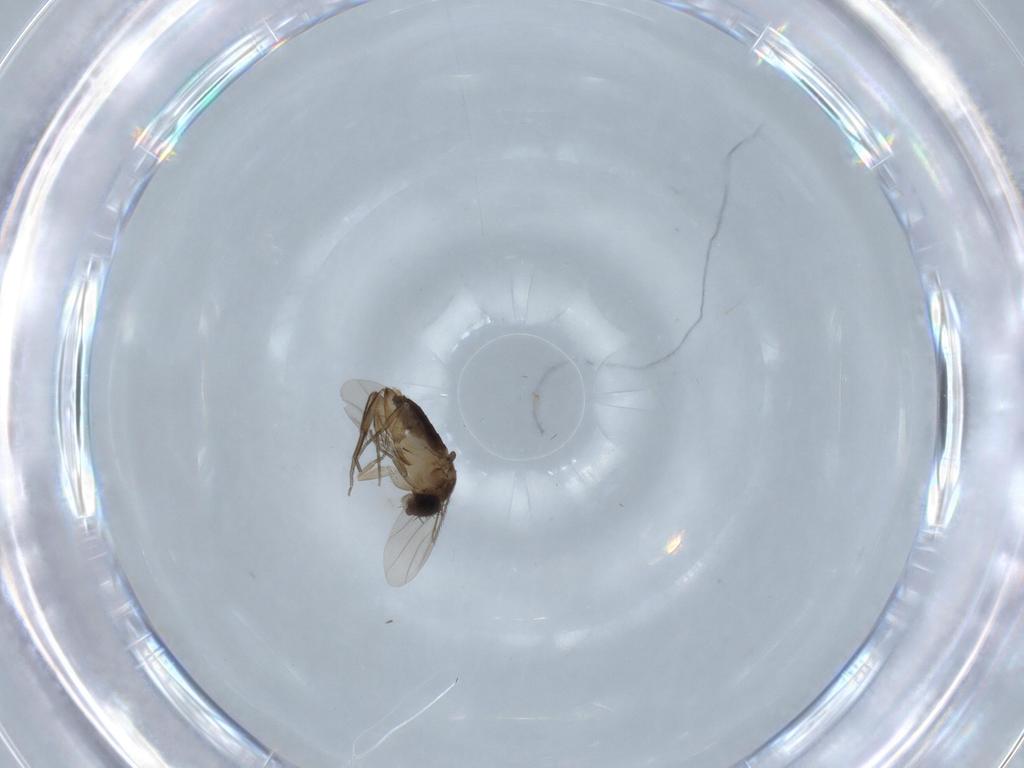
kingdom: Animalia
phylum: Arthropoda
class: Insecta
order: Diptera
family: Phoridae
